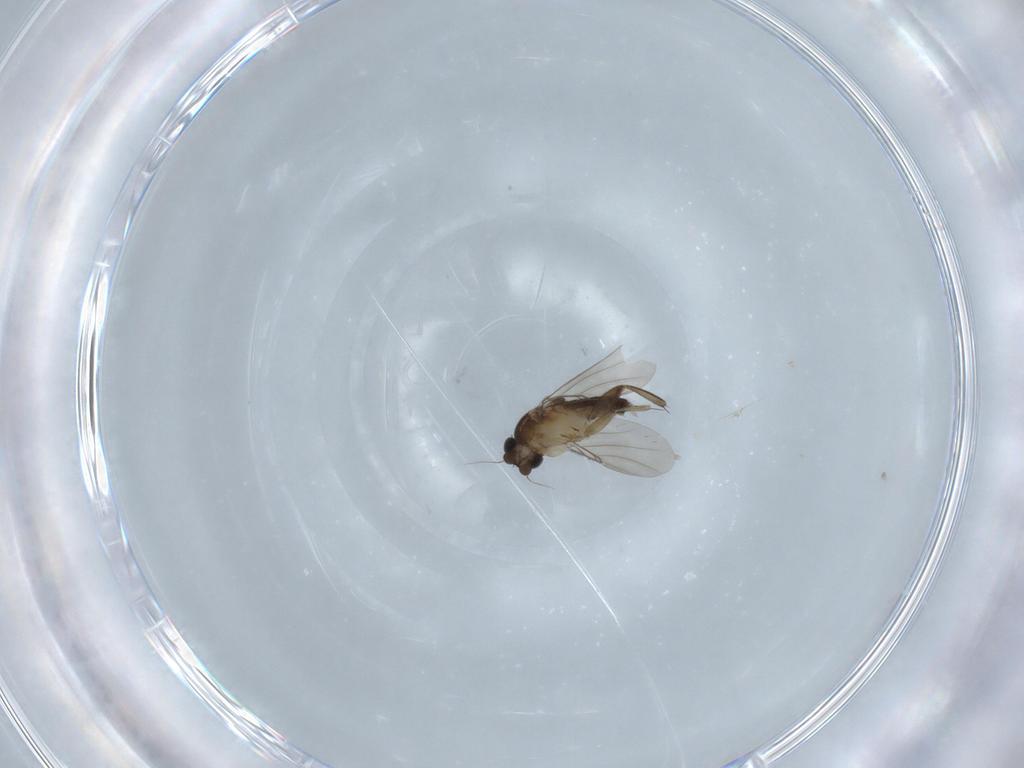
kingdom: Animalia
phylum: Arthropoda
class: Insecta
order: Diptera
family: Phoridae
